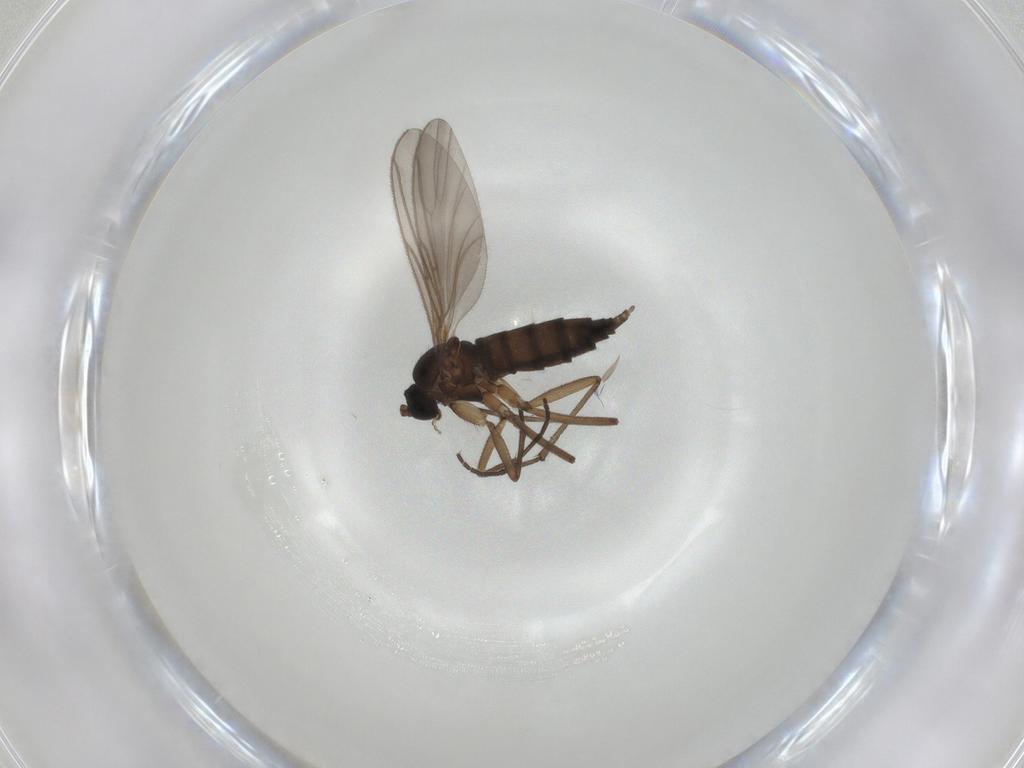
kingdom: Animalia
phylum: Arthropoda
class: Insecta
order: Diptera
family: Sciaridae
